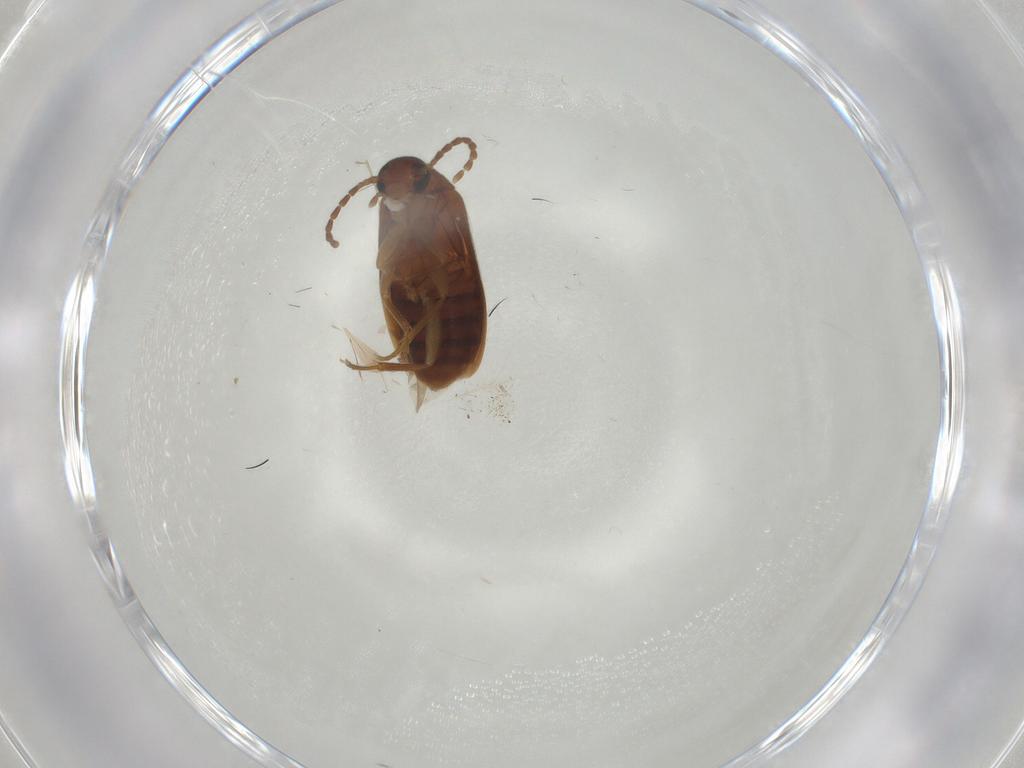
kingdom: Animalia
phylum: Arthropoda
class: Insecta
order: Coleoptera
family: Scraptiidae
